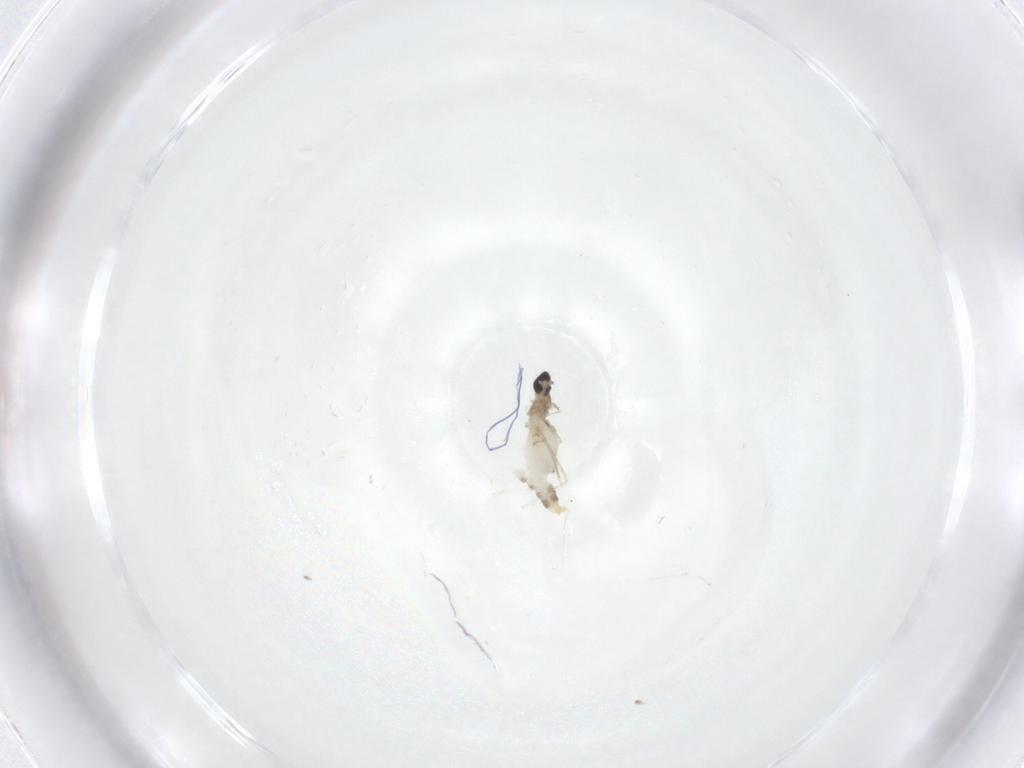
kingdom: Animalia
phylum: Arthropoda
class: Insecta
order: Diptera
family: Cecidomyiidae
